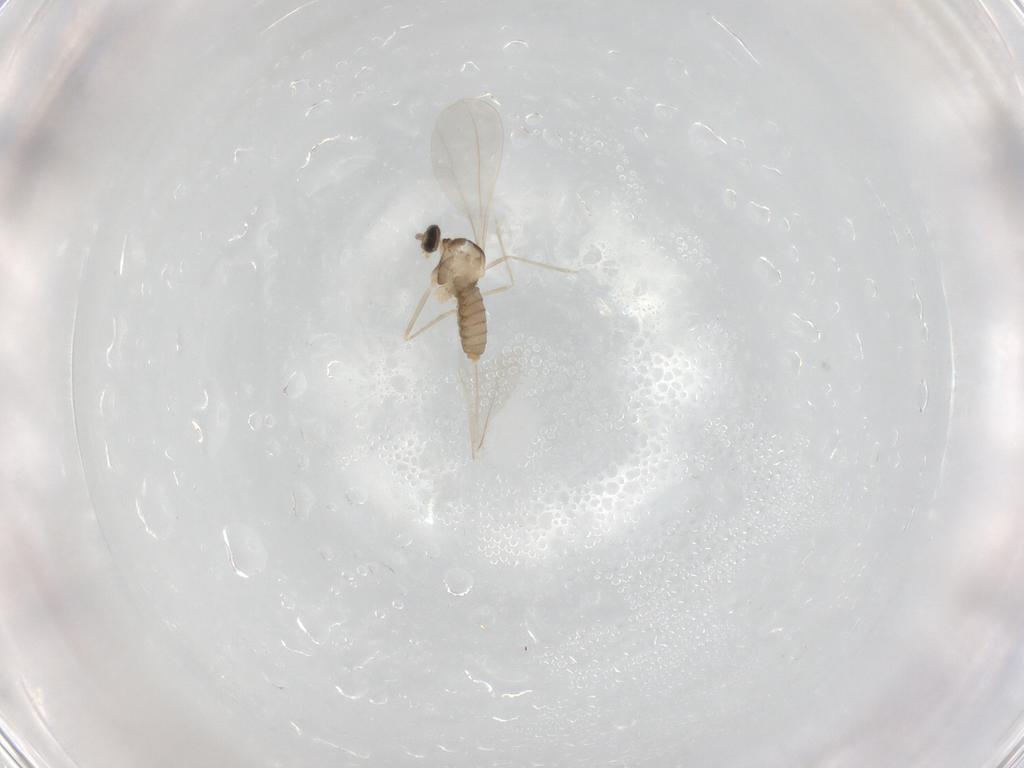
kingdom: Animalia
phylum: Arthropoda
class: Insecta
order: Diptera
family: Cecidomyiidae
